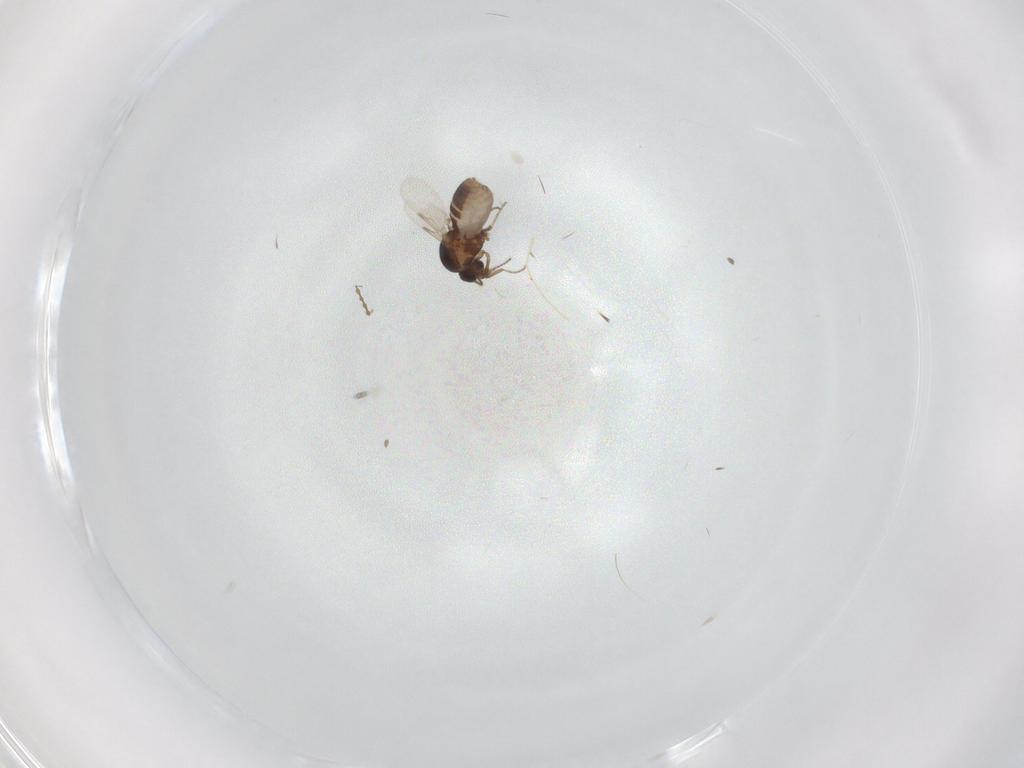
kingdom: Animalia
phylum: Arthropoda
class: Insecta
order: Diptera
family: Ceratopogonidae
